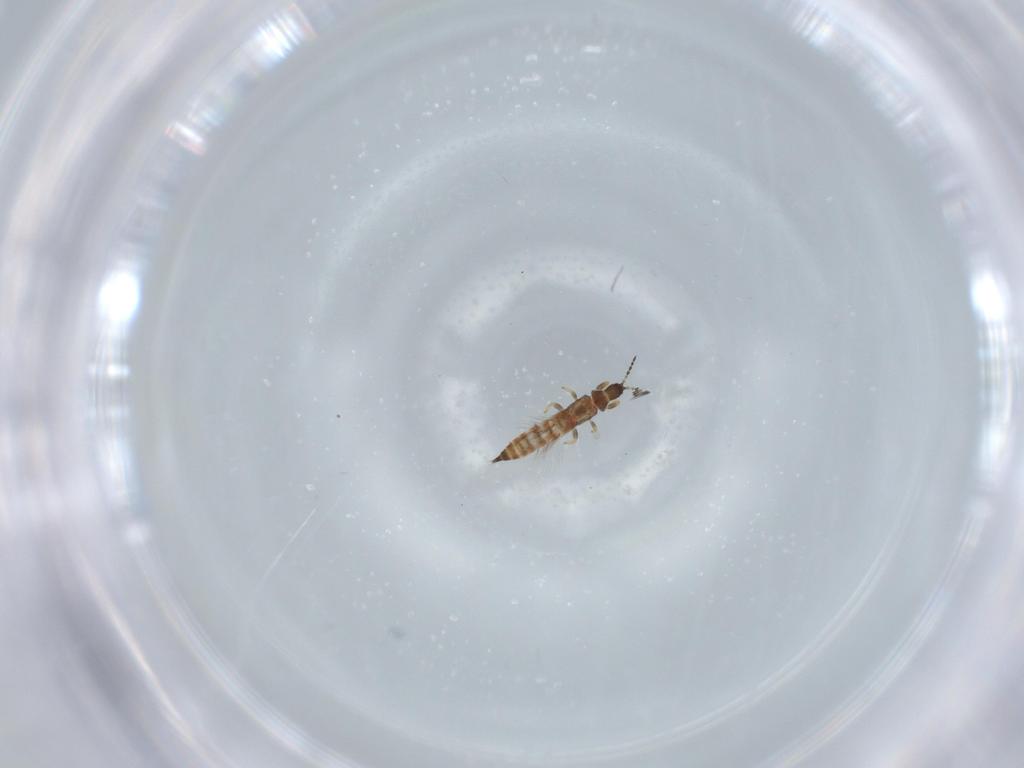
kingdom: Animalia
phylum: Arthropoda
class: Insecta
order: Thysanoptera
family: Phlaeothripidae
